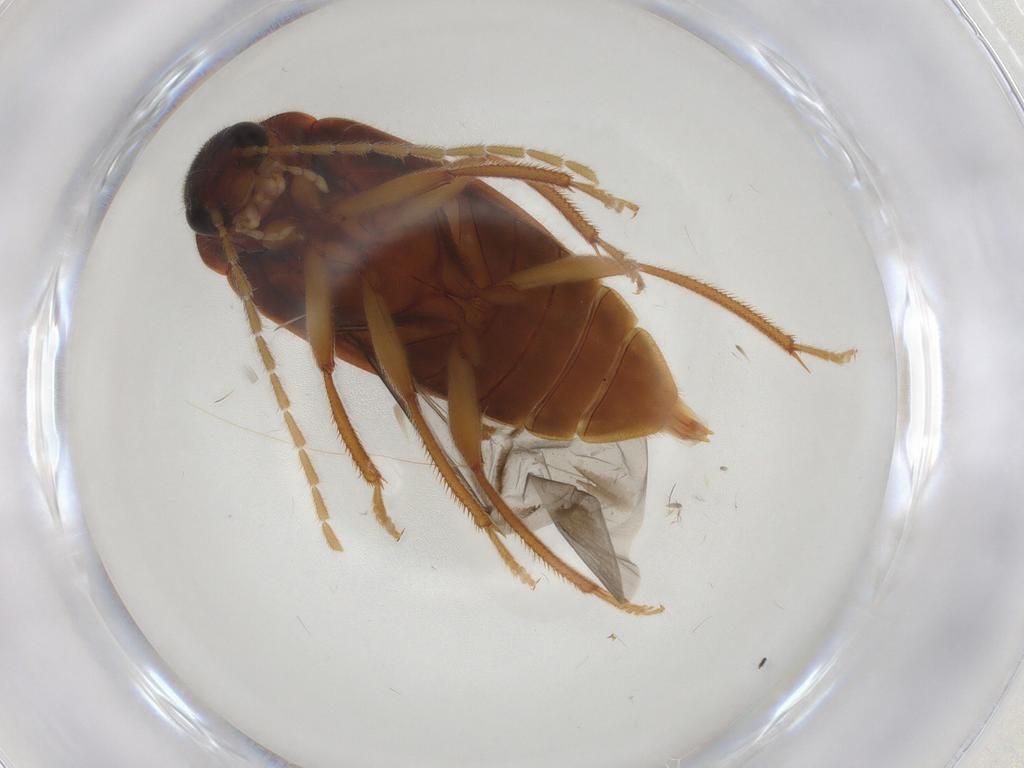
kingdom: Animalia
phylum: Arthropoda
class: Insecta
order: Coleoptera
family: Ptilodactylidae
